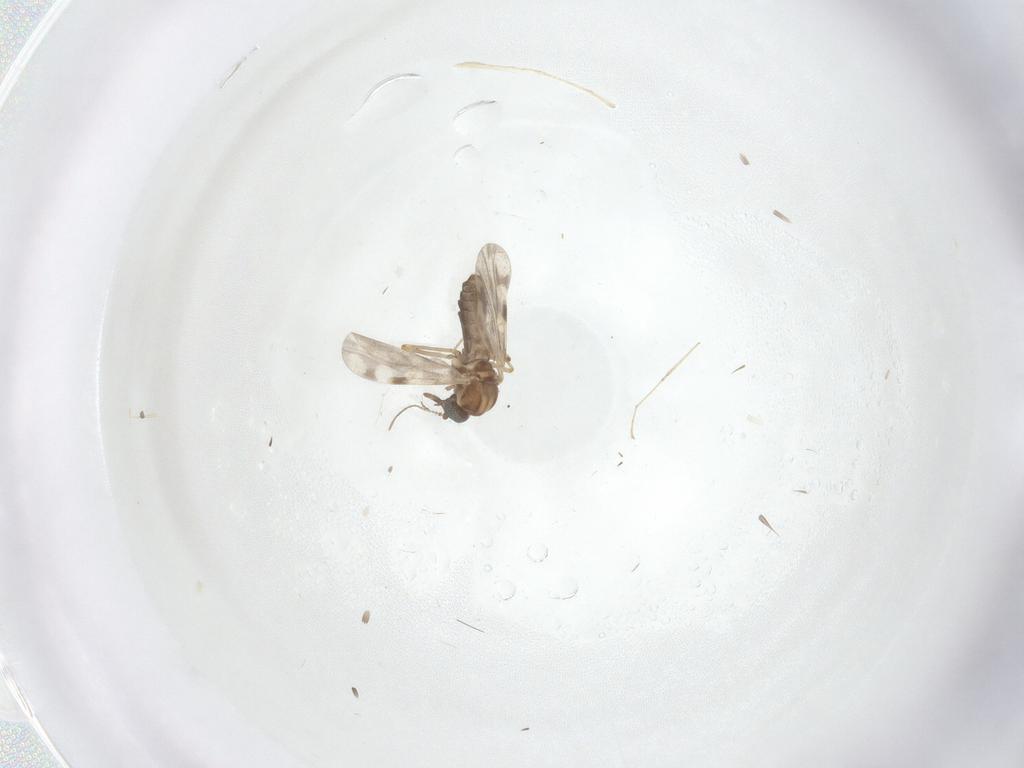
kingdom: Animalia
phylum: Arthropoda
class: Insecta
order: Diptera
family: Cecidomyiidae
